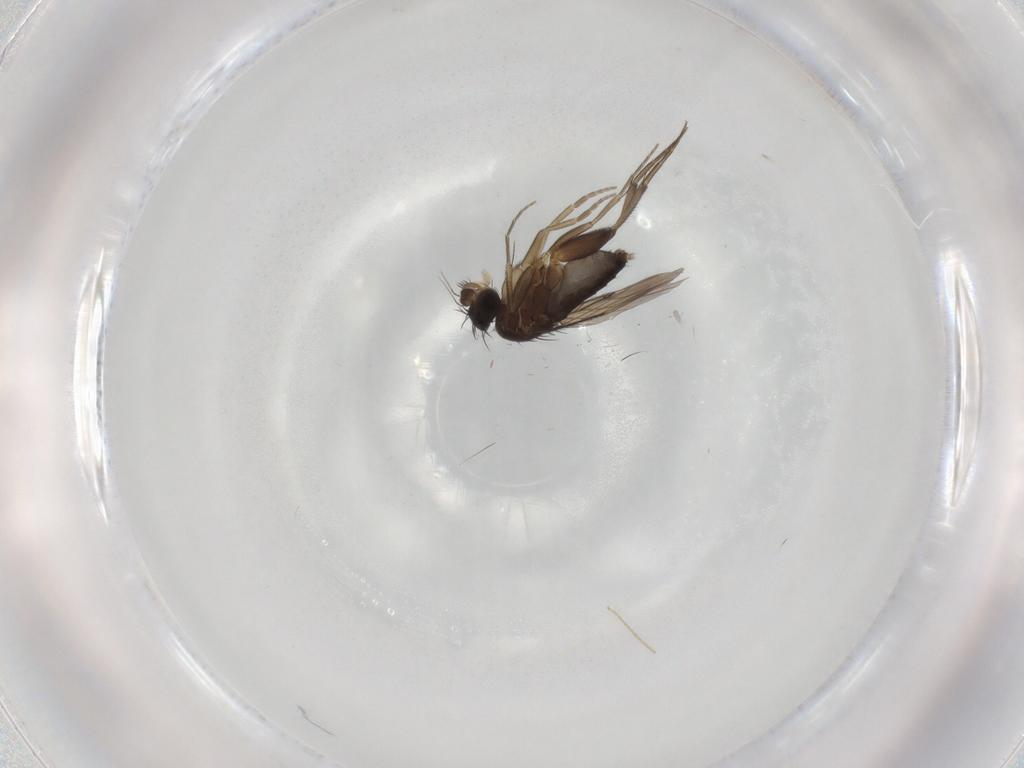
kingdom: Animalia
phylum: Arthropoda
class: Insecta
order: Diptera
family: Phoridae
